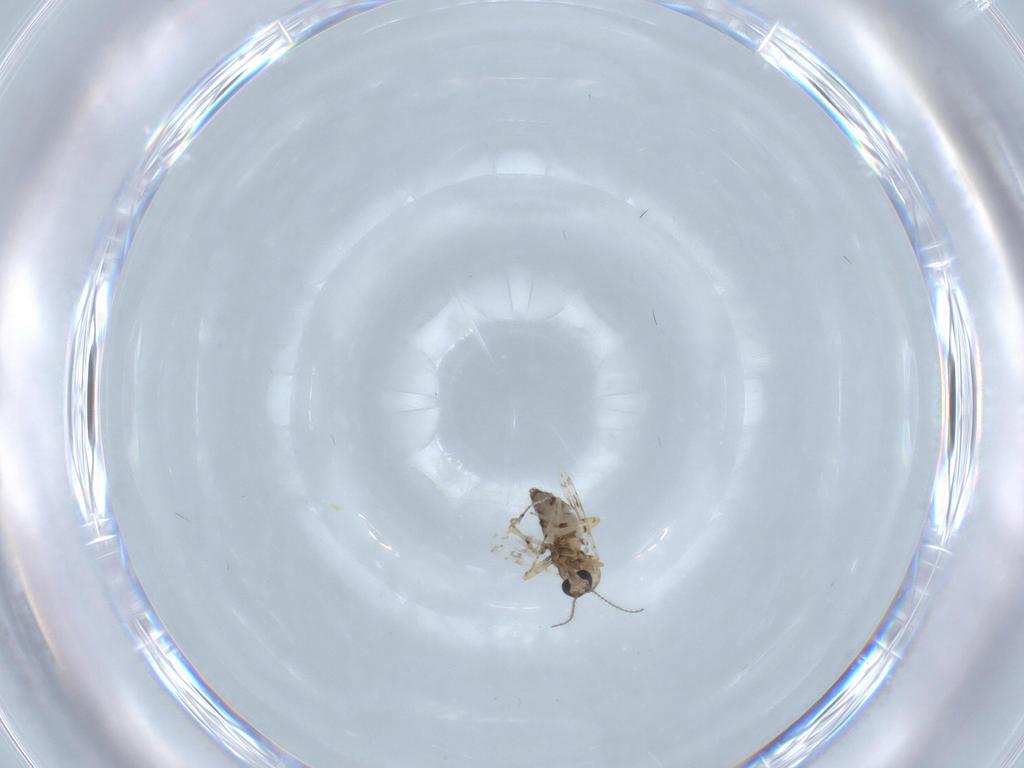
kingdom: Animalia
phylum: Arthropoda
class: Insecta
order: Diptera
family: Ceratopogonidae
